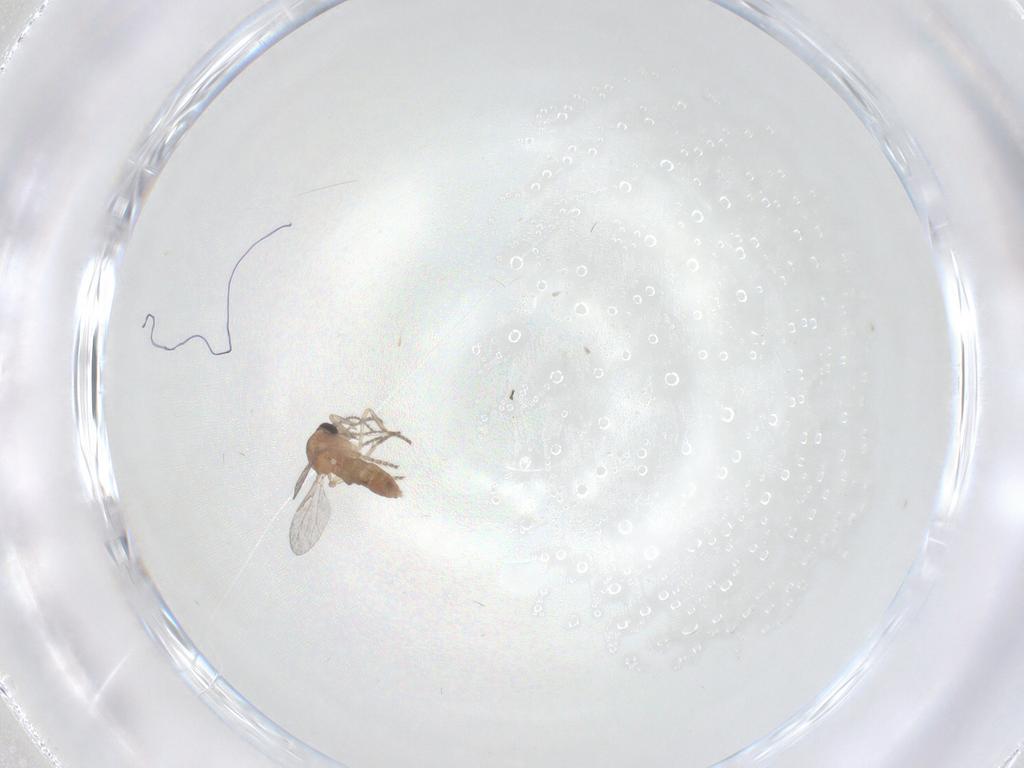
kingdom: Animalia
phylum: Arthropoda
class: Insecta
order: Diptera
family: Ceratopogonidae
